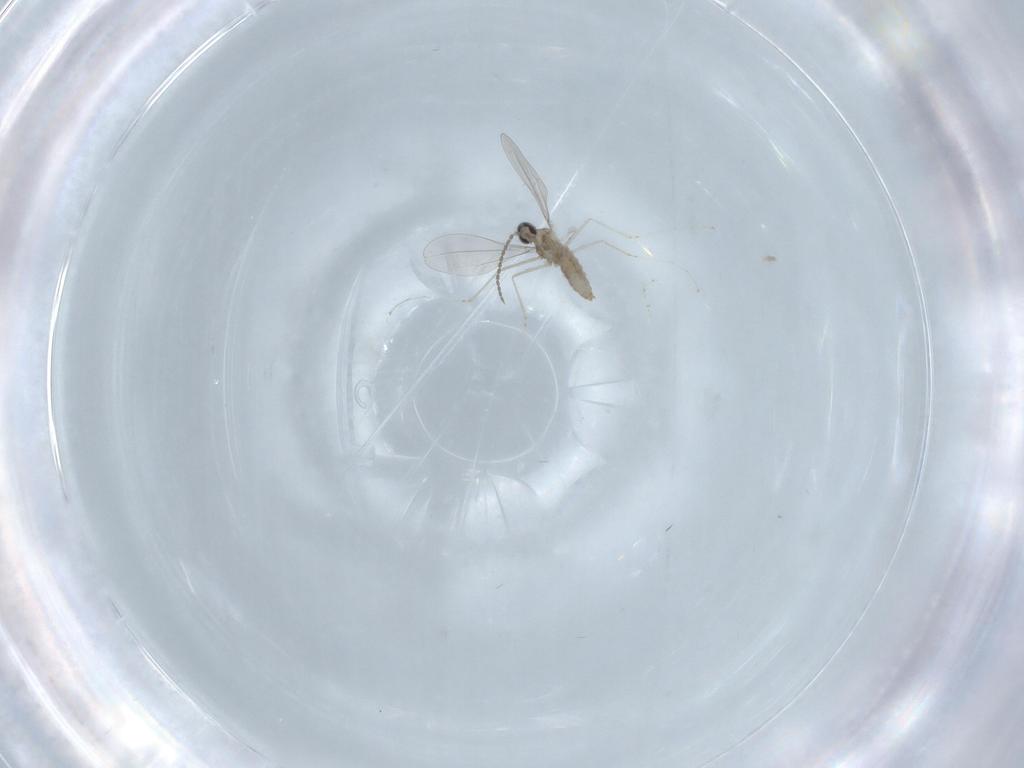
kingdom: Animalia
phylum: Arthropoda
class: Insecta
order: Diptera
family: Cecidomyiidae
